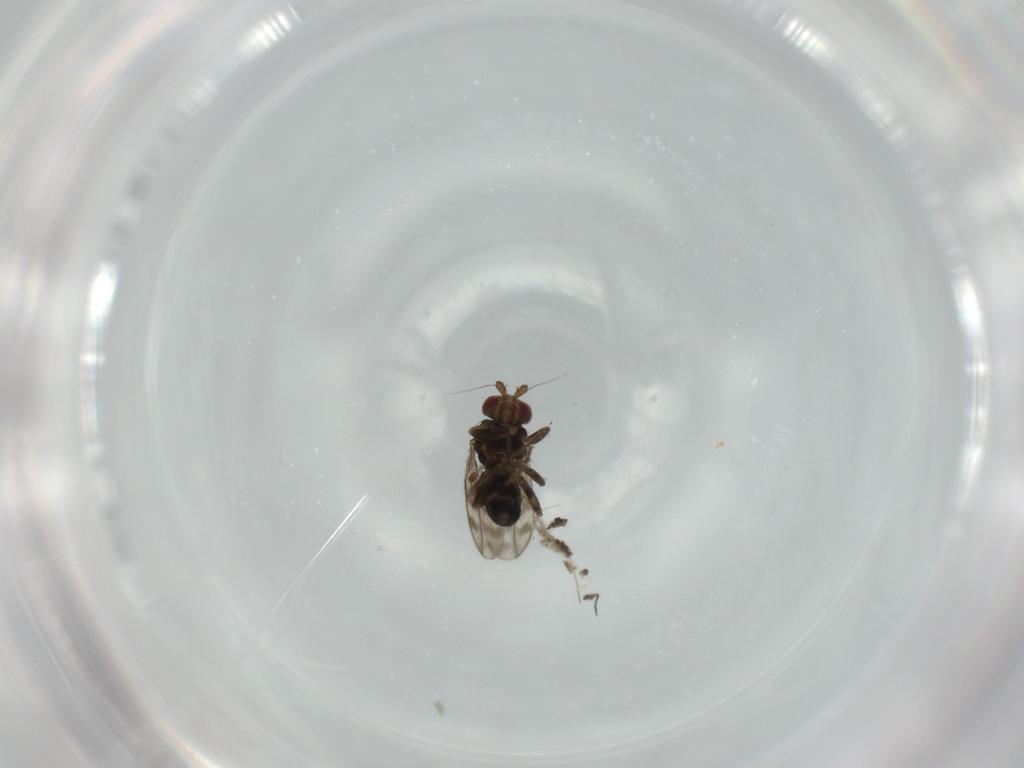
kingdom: Animalia
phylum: Arthropoda
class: Insecta
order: Diptera
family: Sphaeroceridae
